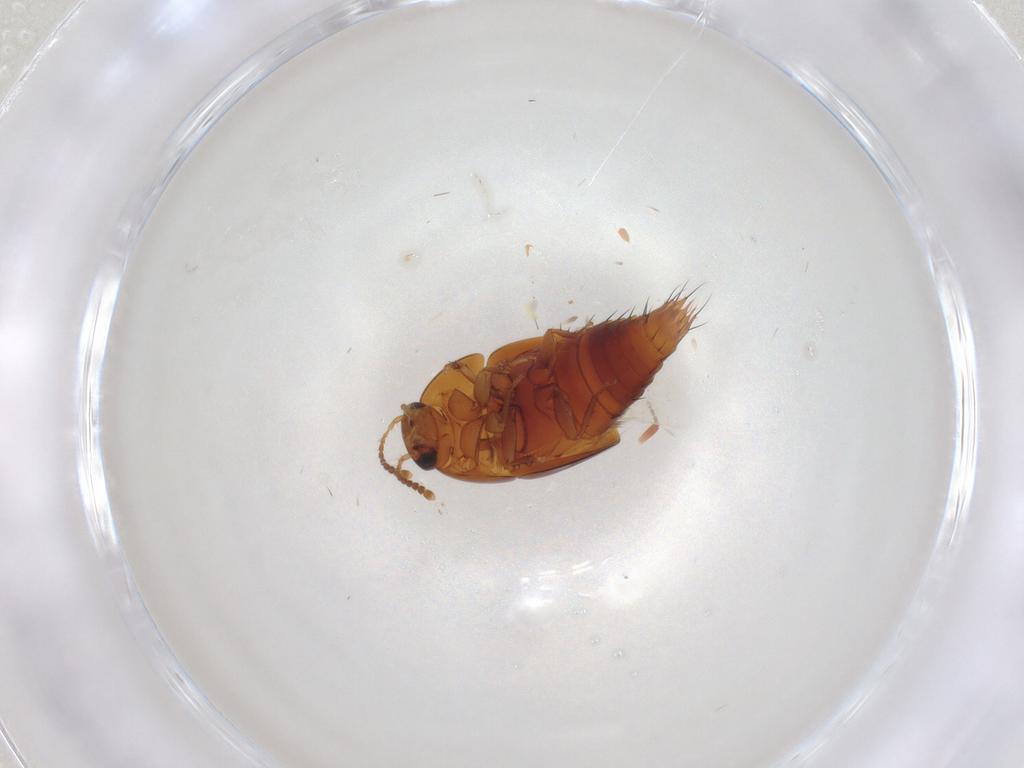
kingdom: Animalia
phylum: Arthropoda
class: Insecta
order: Coleoptera
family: Staphylinidae
